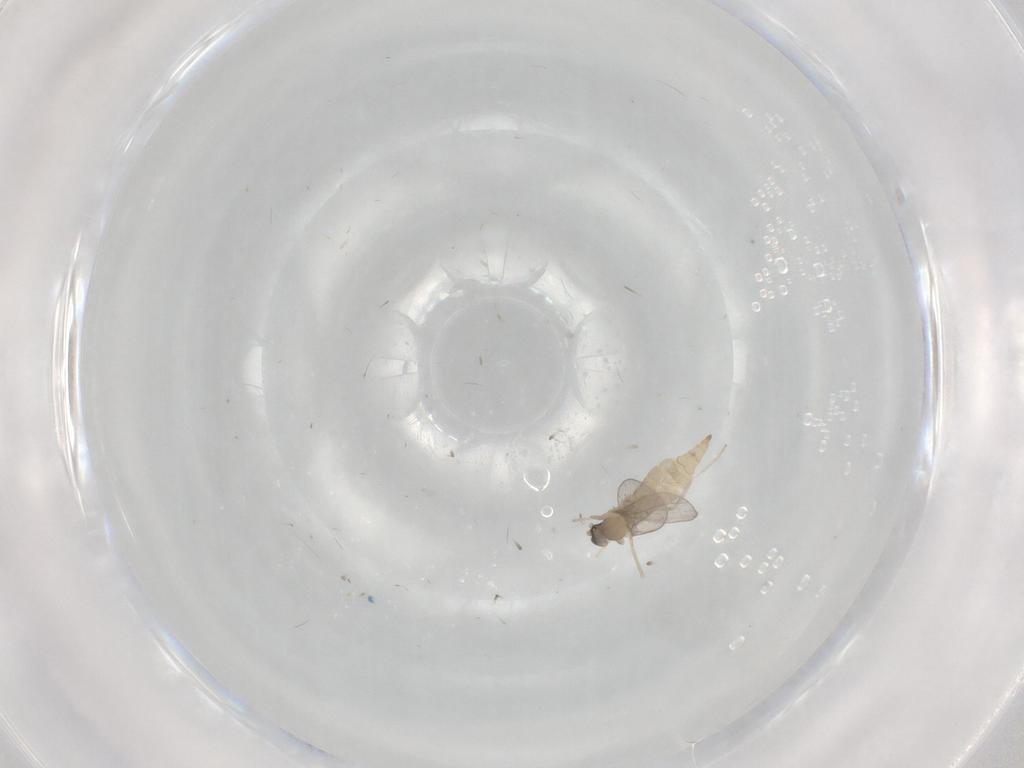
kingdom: Animalia
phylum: Arthropoda
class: Insecta
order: Diptera
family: Cecidomyiidae
